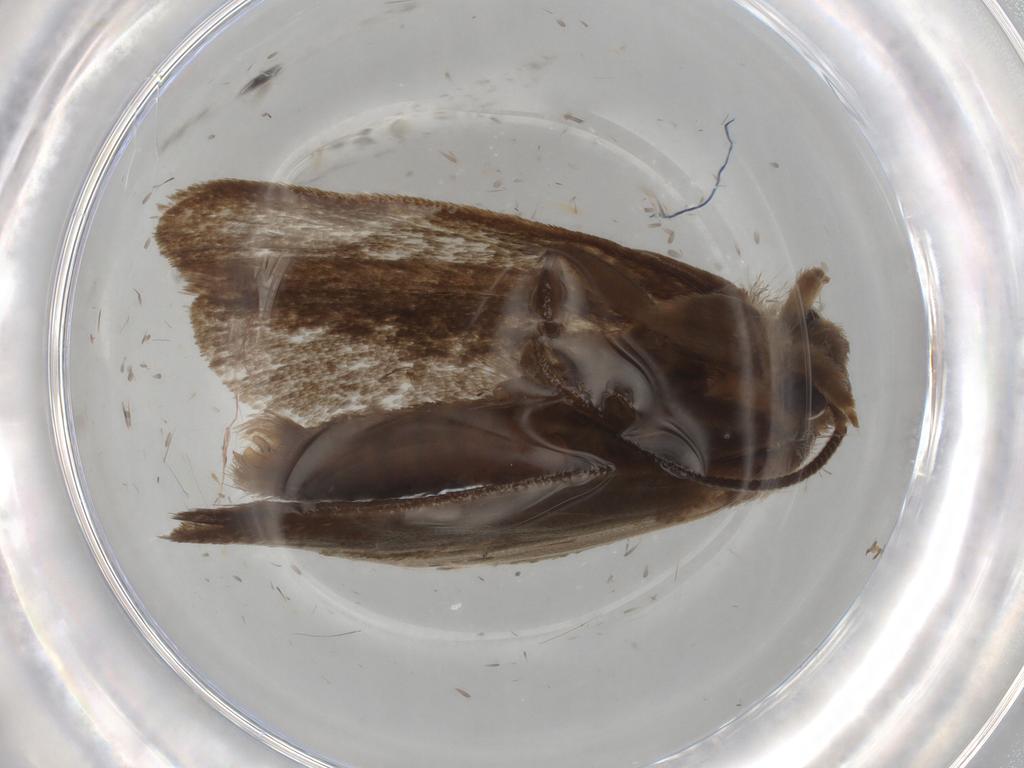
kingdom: Animalia
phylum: Arthropoda
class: Insecta
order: Lepidoptera
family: Tineidae
